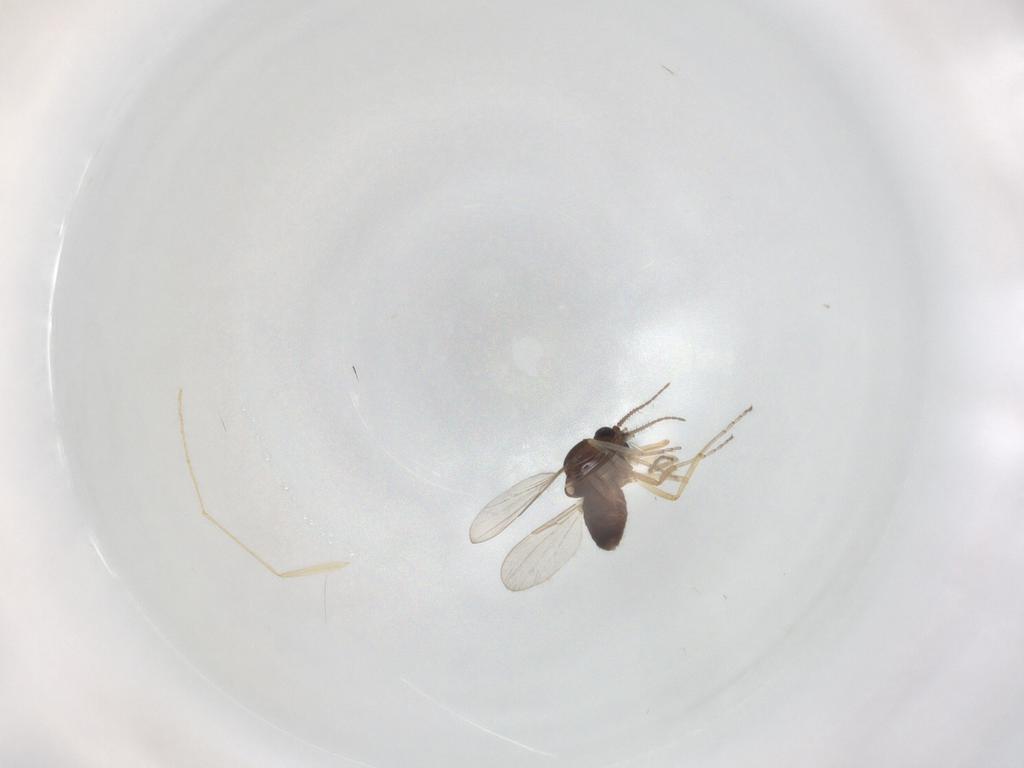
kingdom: Animalia
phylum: Arthropoda
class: Insecta
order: Diptera
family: Ceratopogonidae
